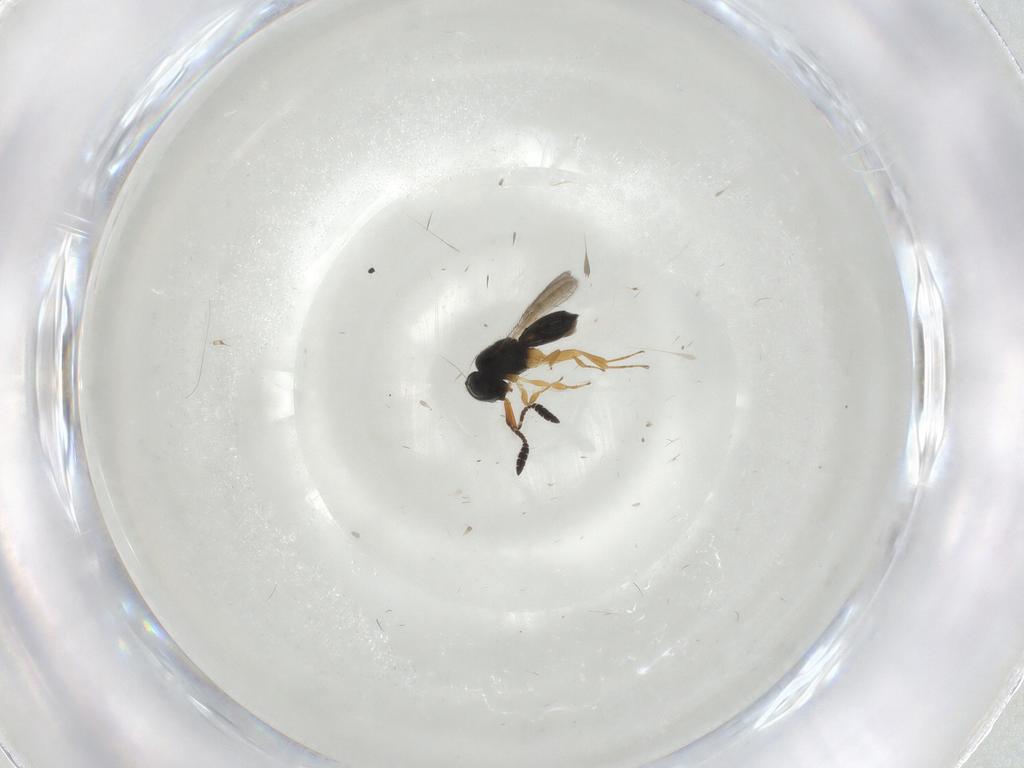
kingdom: Animalia
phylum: Arthropoda
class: Insecta
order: Hymenoptera
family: Scelionidae
